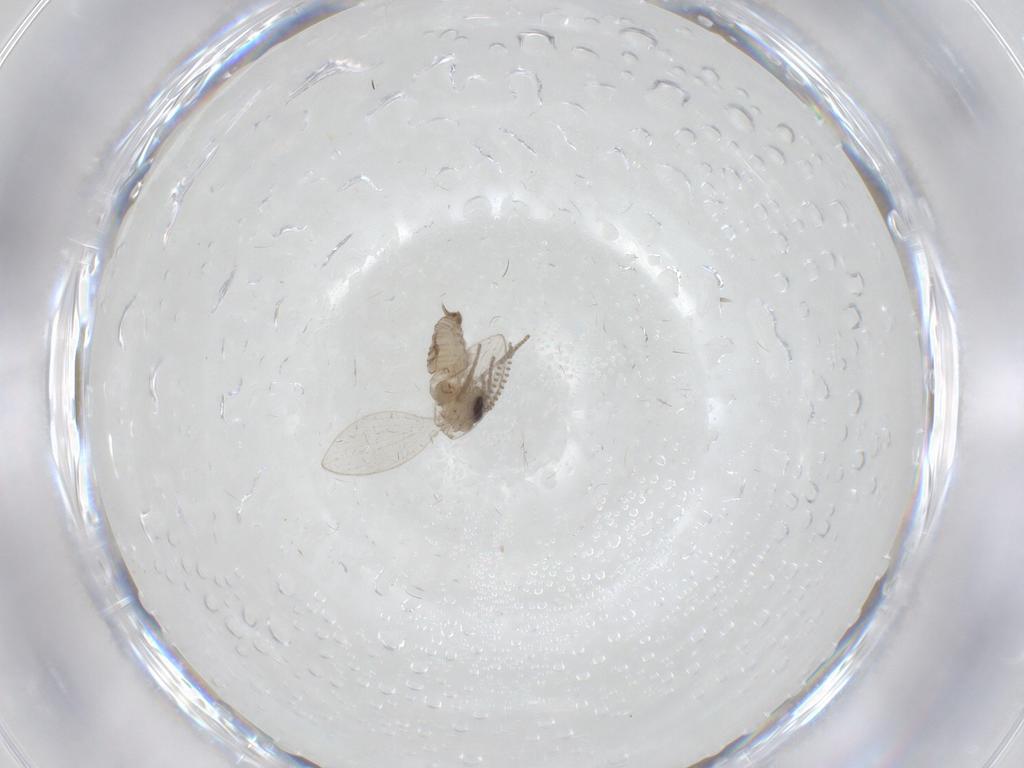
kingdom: Animalia
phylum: Arthropoda
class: Insecta
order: Diptera
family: Psychodidae
